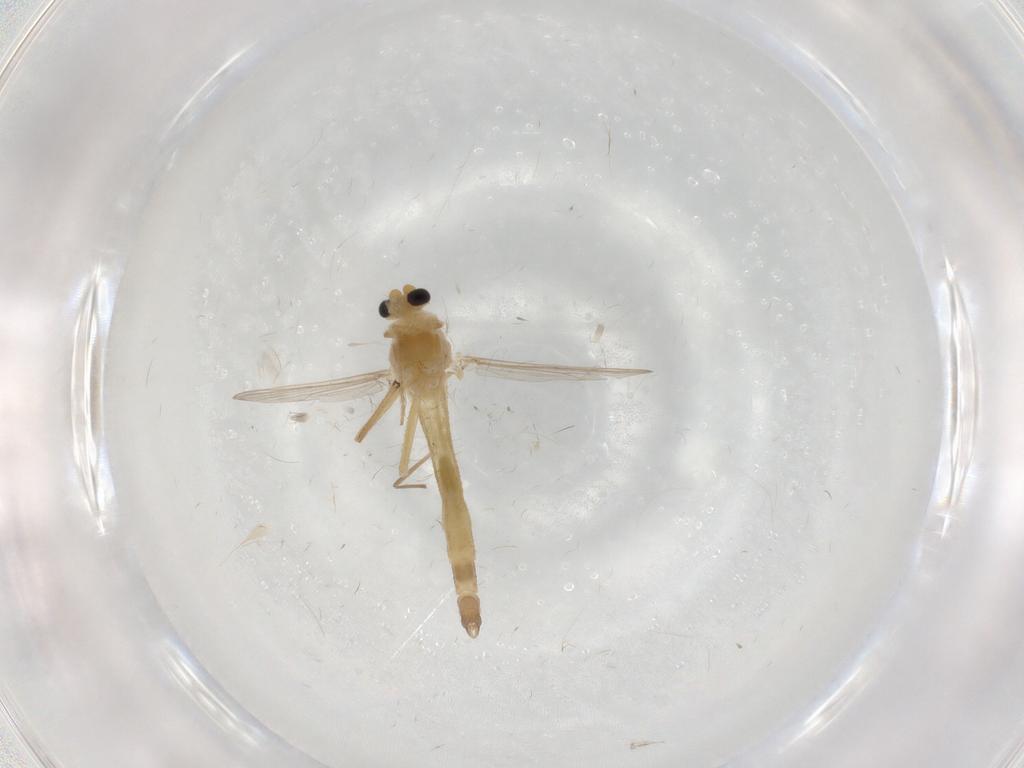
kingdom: Animalia
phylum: Arthropoda
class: Insecta
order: Diptera
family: Chironomidae
